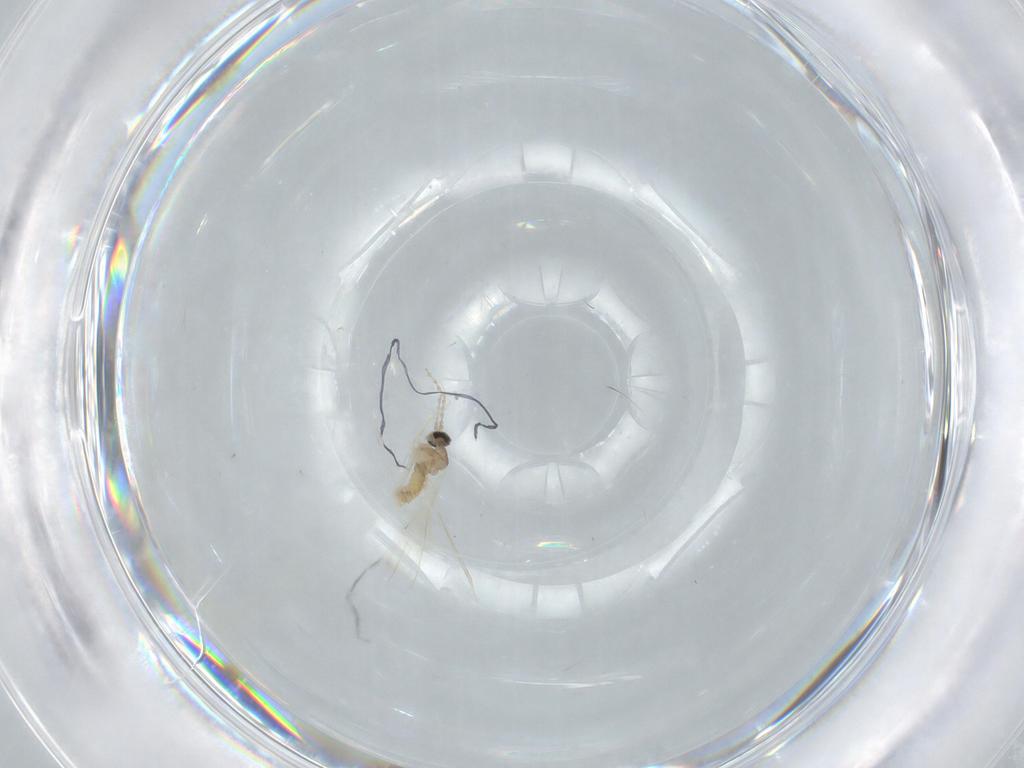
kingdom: Animalia
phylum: Arthropoda
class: Insecta
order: Diptera
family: Cecidomyiidae
